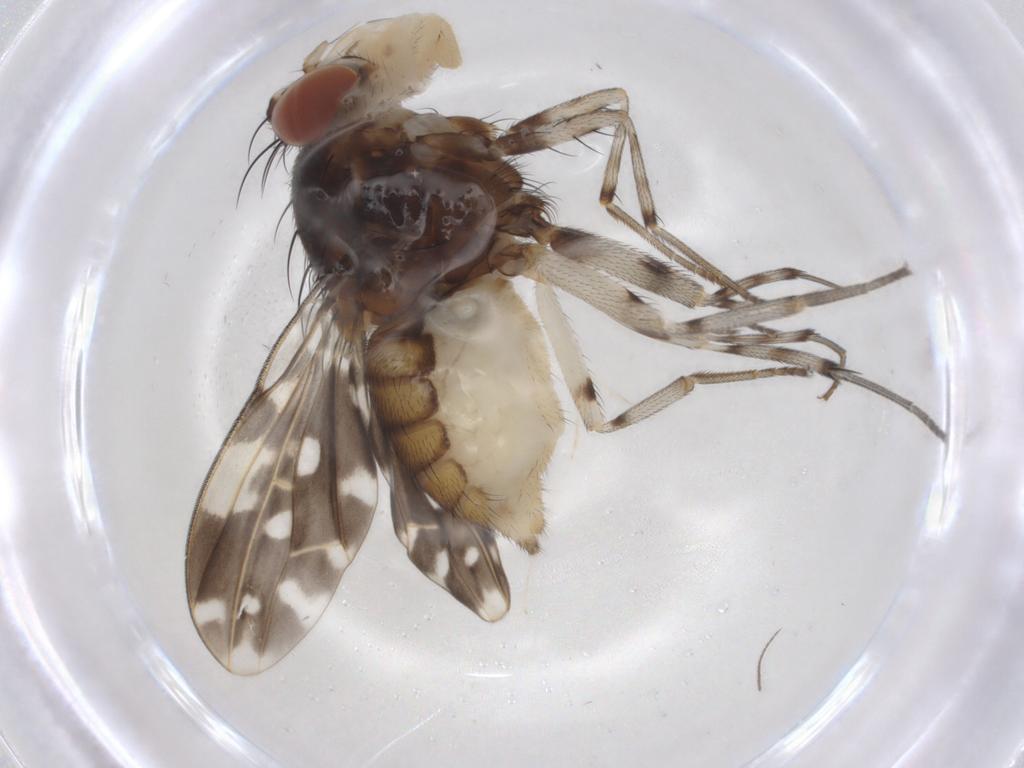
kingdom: Animalia
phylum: Arthropoda
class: Insecta
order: Diptera
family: Lauxaniidae
